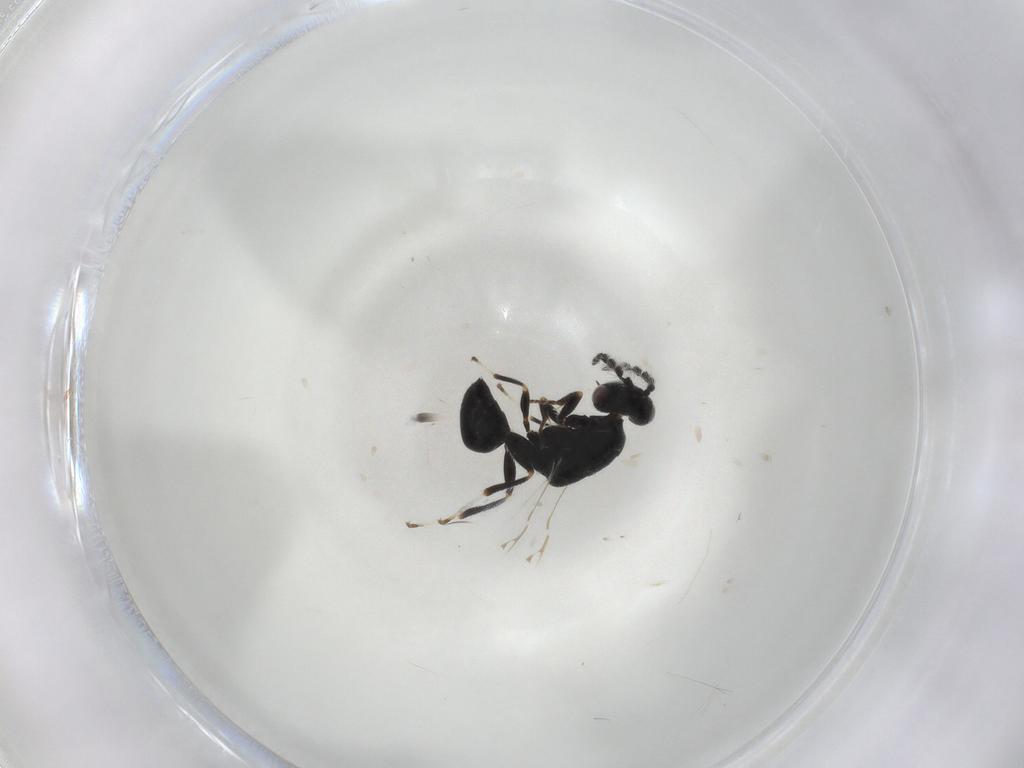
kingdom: Animalia
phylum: Arthropoda
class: Insecta
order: Hymenoptera
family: Eurytomidae
